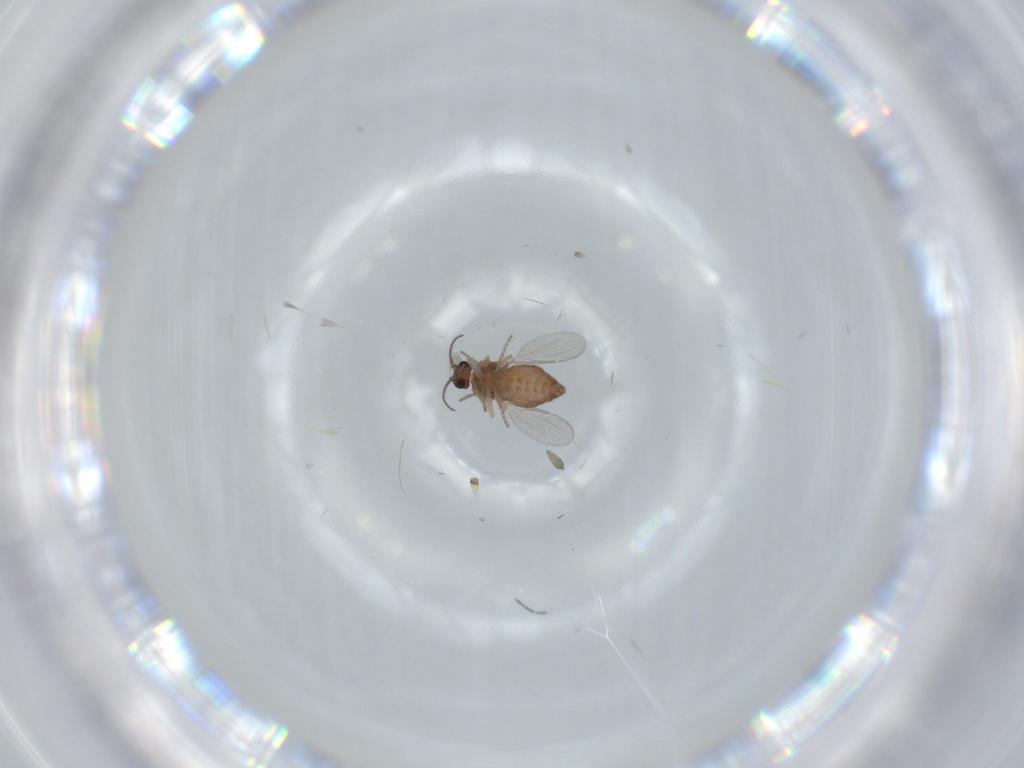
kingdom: Animalia
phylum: Arthropoda
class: Insecta
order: Diptera
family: Ceratopogonidae
